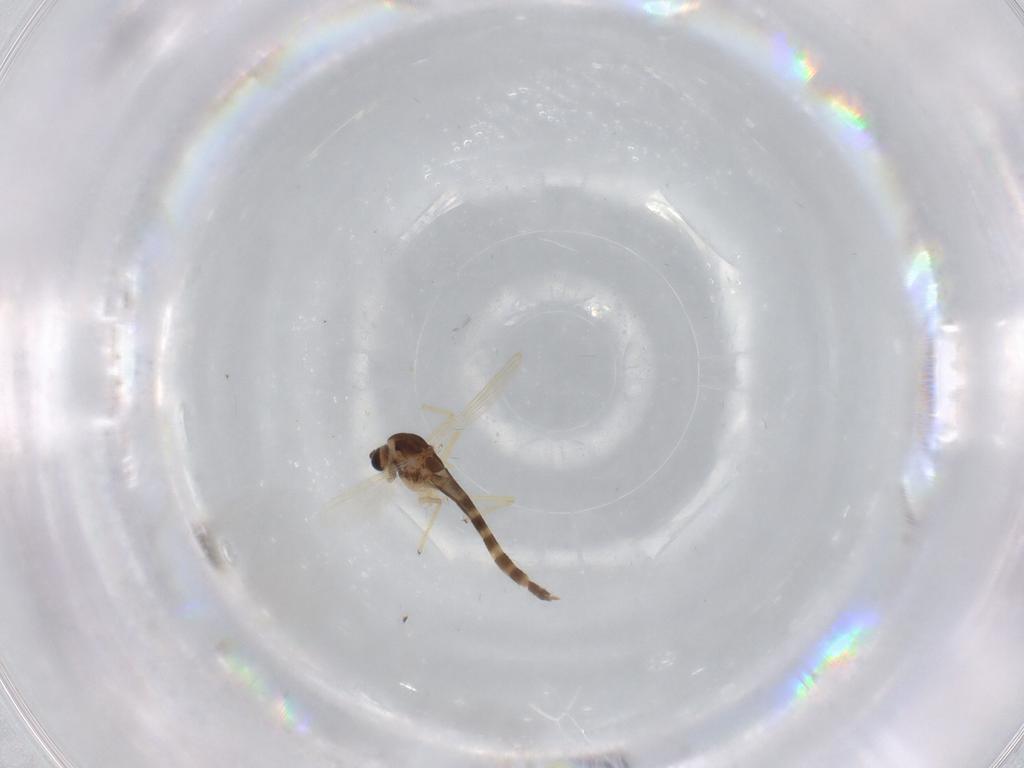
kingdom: Animalia
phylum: Arthropoda
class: Insecta
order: Diptera
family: Chironomidae
